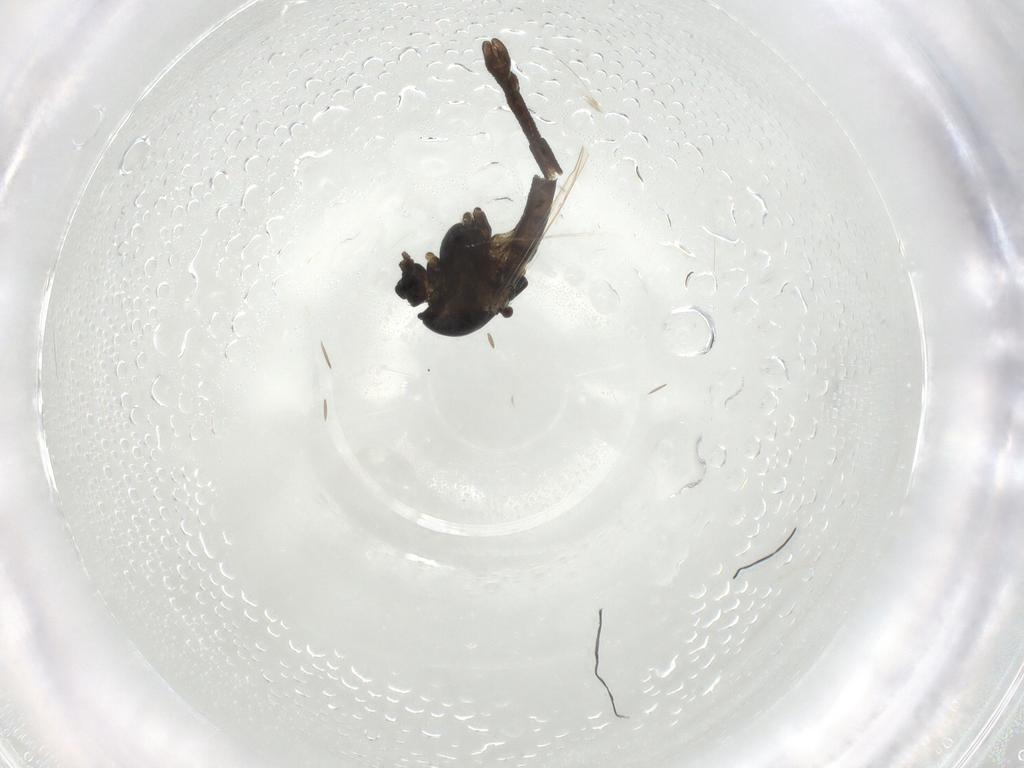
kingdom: Animalia
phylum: Arthropoda
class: Insecta
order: Diptera
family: Chironomidae
